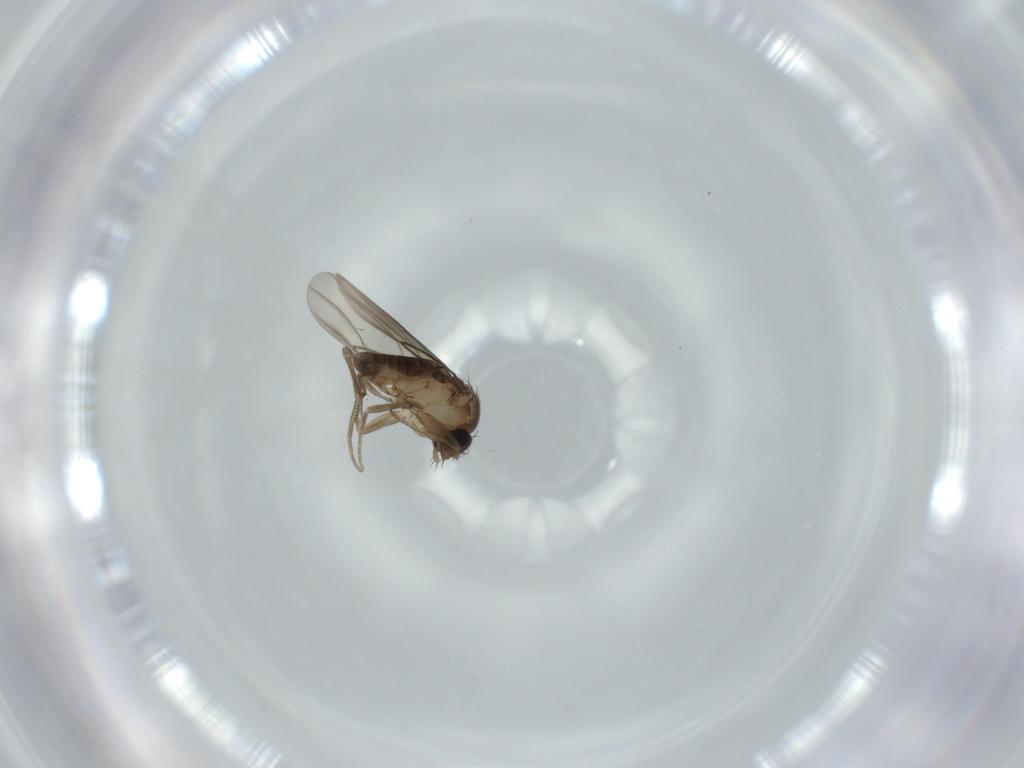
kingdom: Animalia
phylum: Arthropoda
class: Insecta
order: Diptera
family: Phoridae
